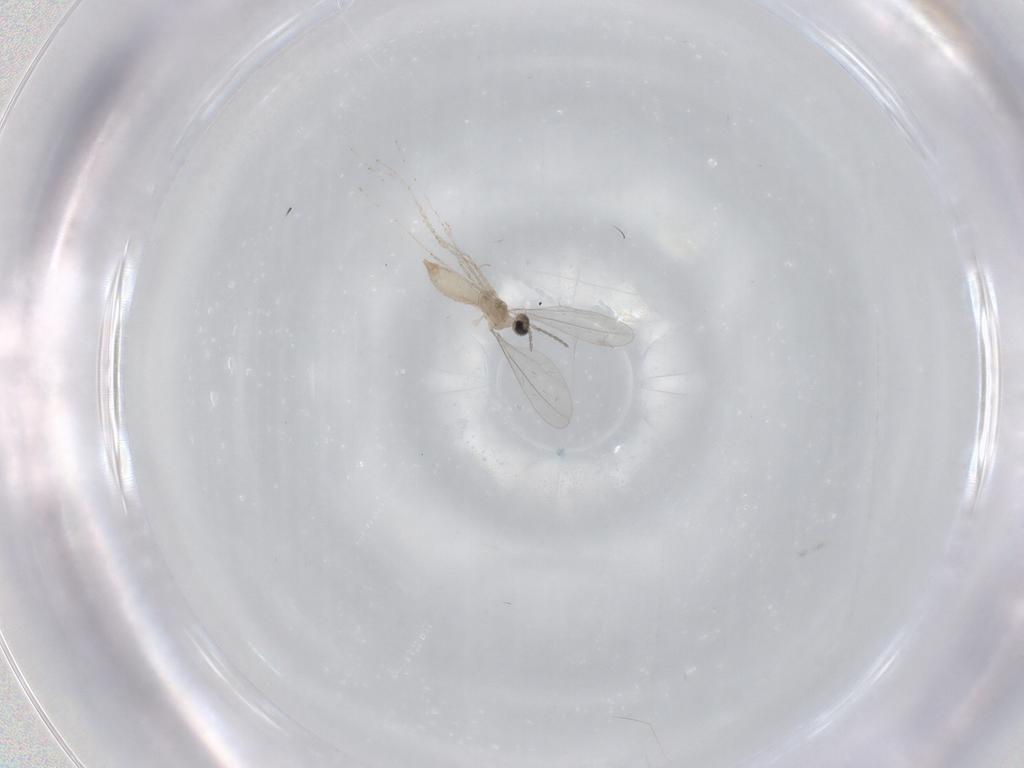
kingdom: Animalia
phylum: Arthropoda
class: Insecta
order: Diptera
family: Cecidomyiidae
